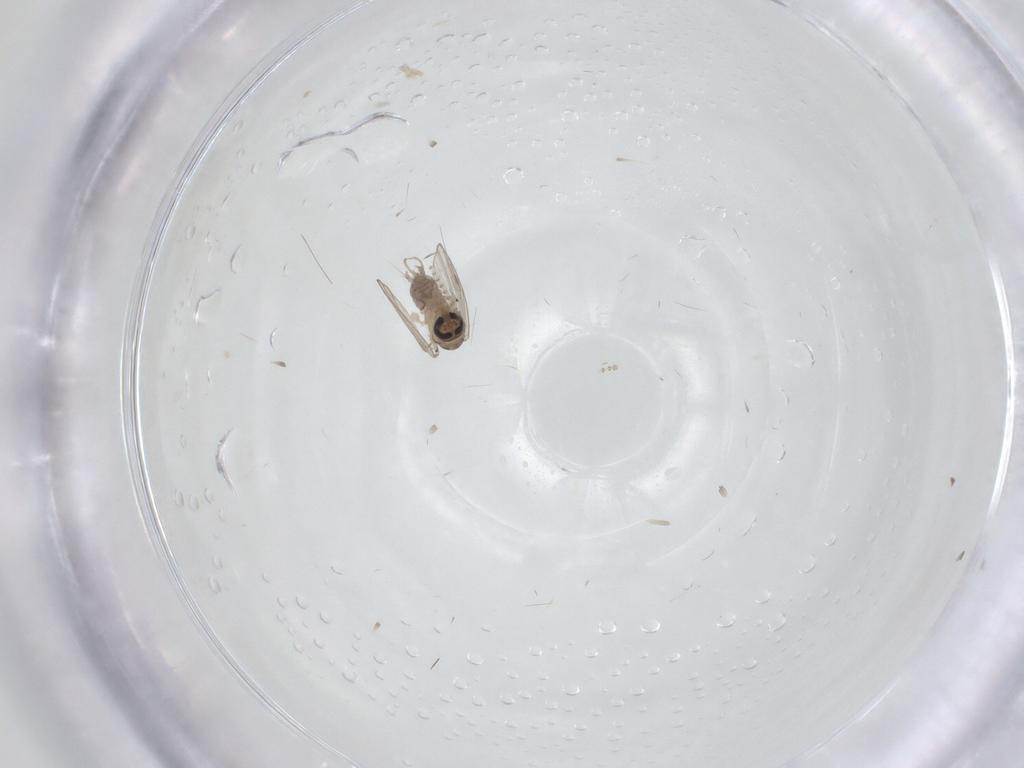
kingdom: Animalia
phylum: Arthropoda
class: Insecta
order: Diptera
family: Psychodidae
